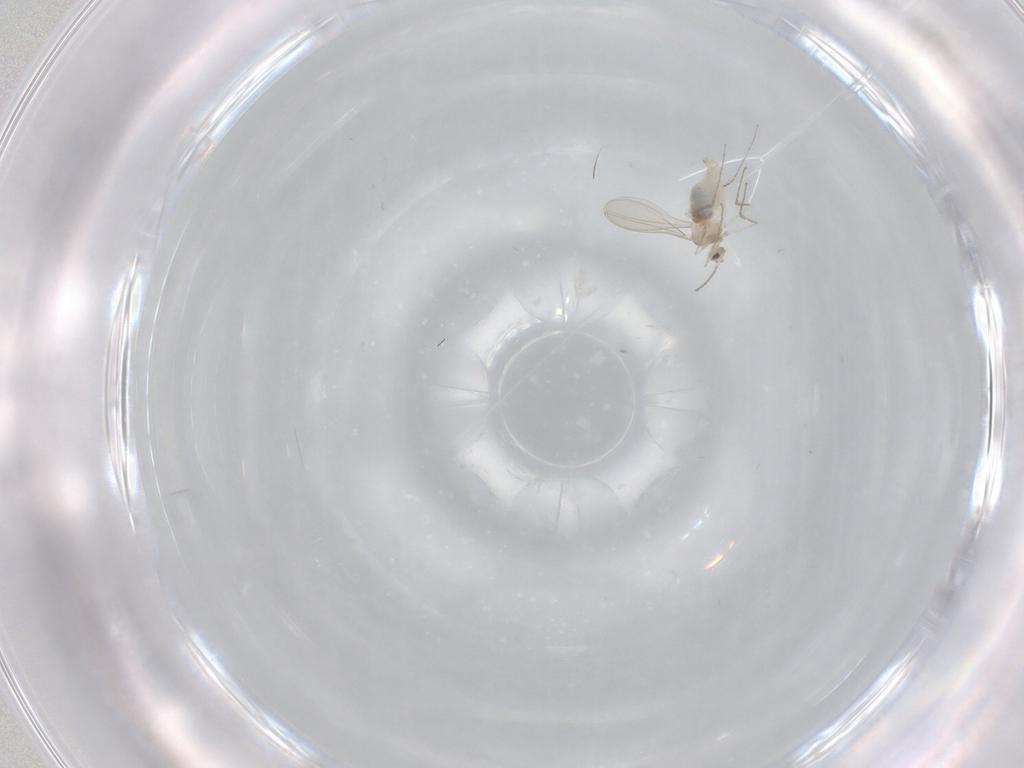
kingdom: Animalia
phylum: Arthropoda
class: Insecta
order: Diptera
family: Cecidomyiidae
